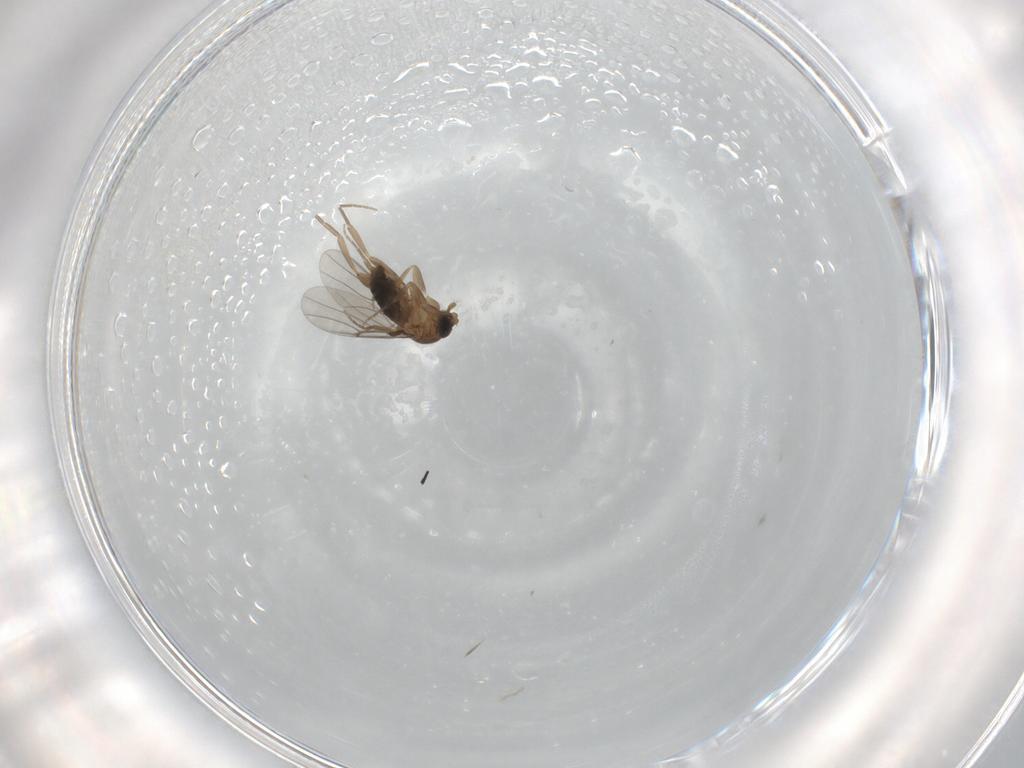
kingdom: Animalia
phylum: Arthropoda
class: Insecta
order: Diptera
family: Phoridae
